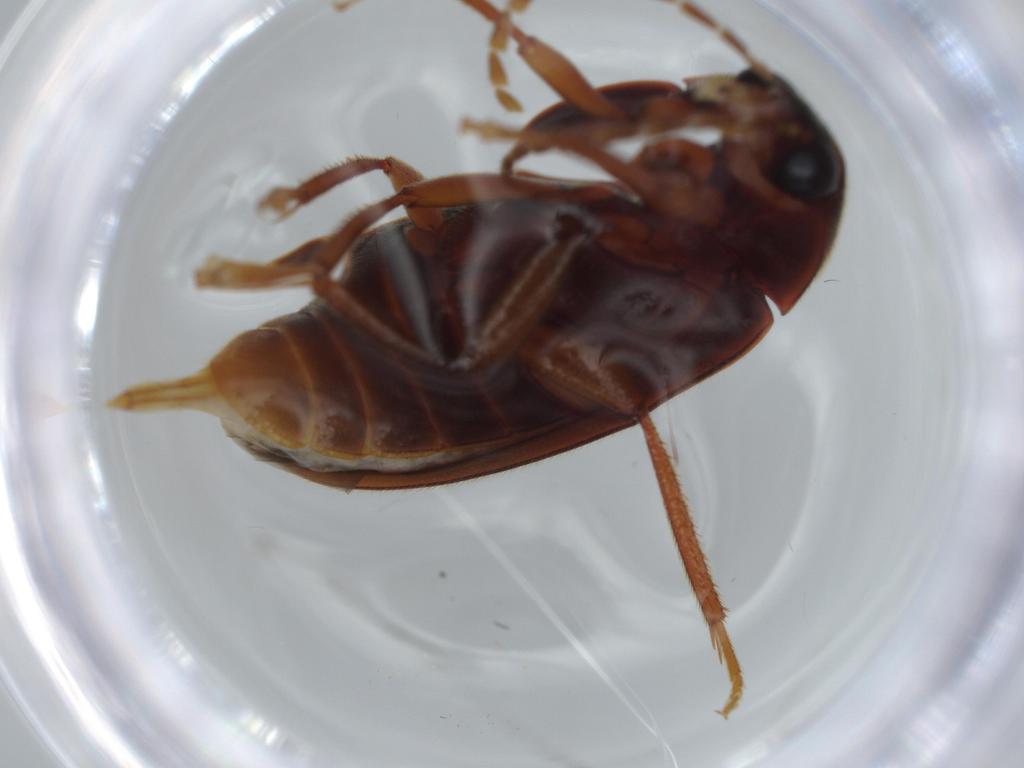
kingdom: Animalia
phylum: Arthropoda
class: Insecta
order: Coleoptera
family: Ptilodactylidae
